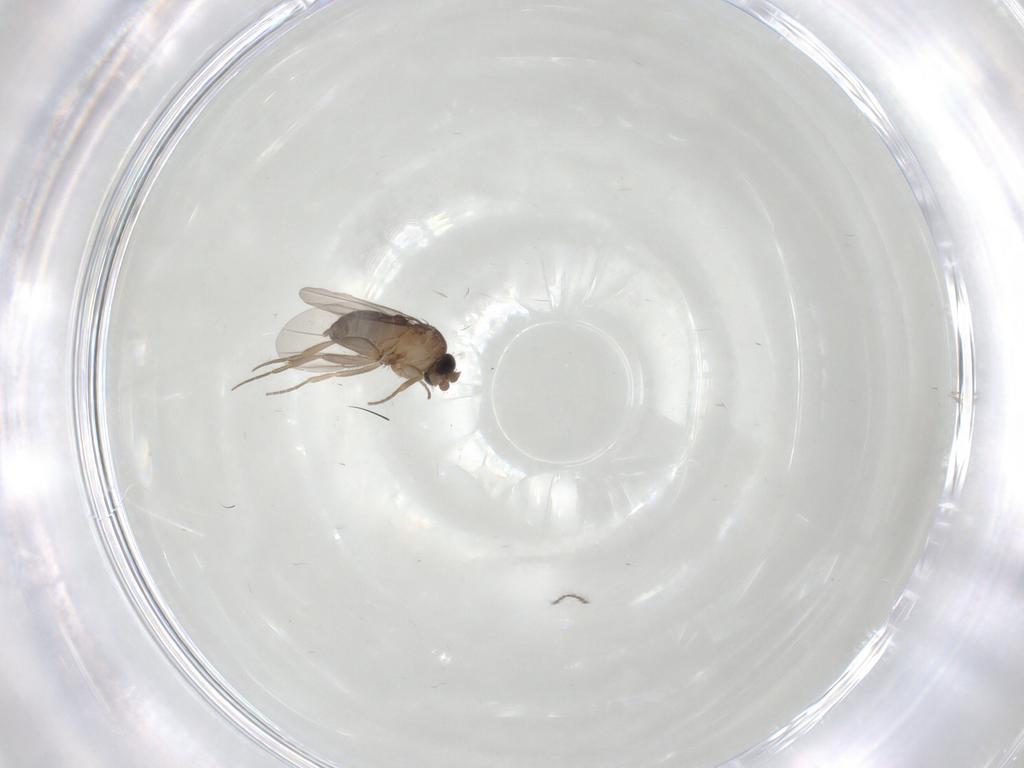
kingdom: Animalia
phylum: Arthropoda
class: Insecta
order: Diptera
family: Phoridae
